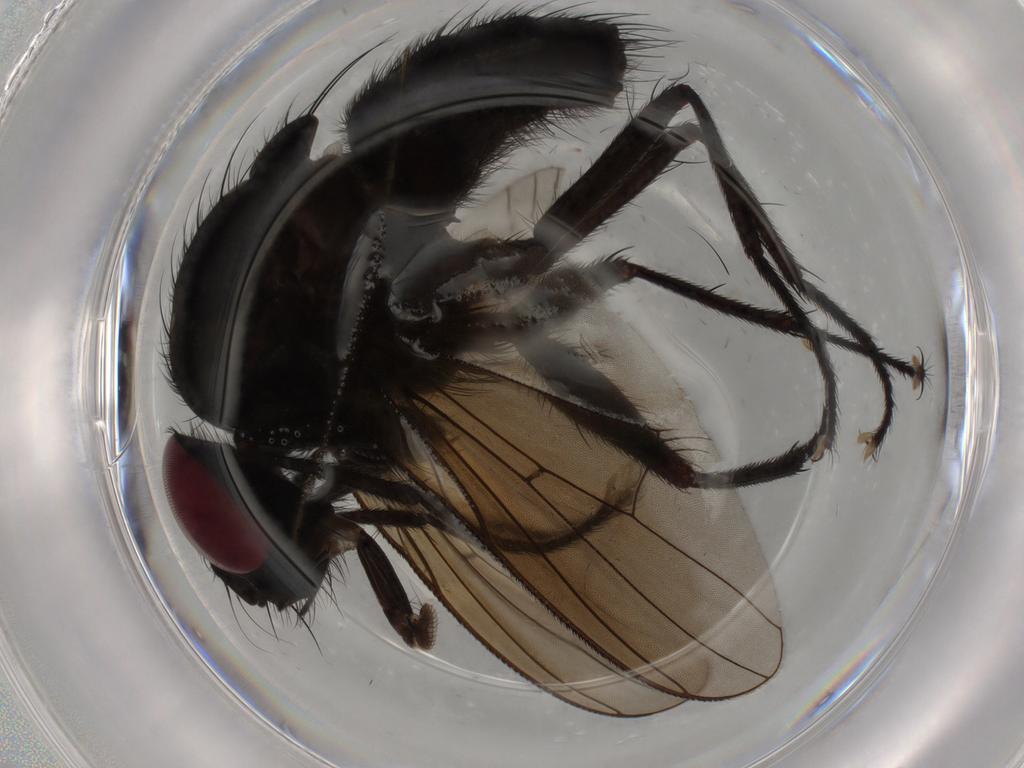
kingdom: Animalia
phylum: Arthropoda
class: Insecta
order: Diptera
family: Muscidae
